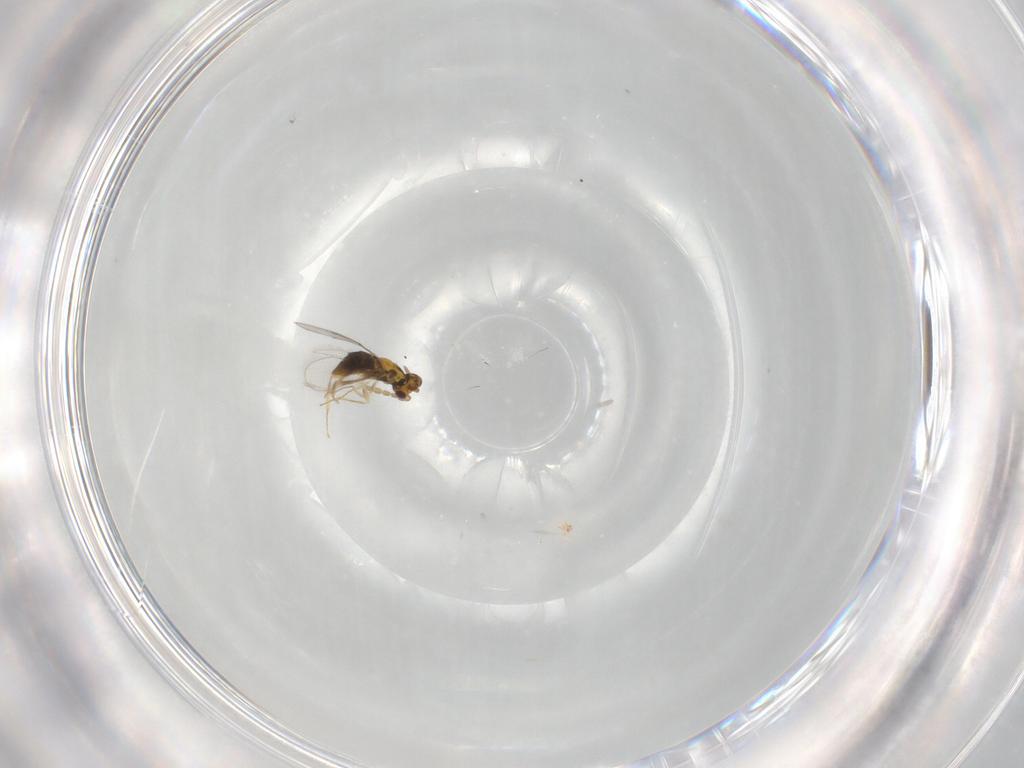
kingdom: Animalia
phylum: Arthropoda
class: Insecta
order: Hymenoptera
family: Aphelinidae
